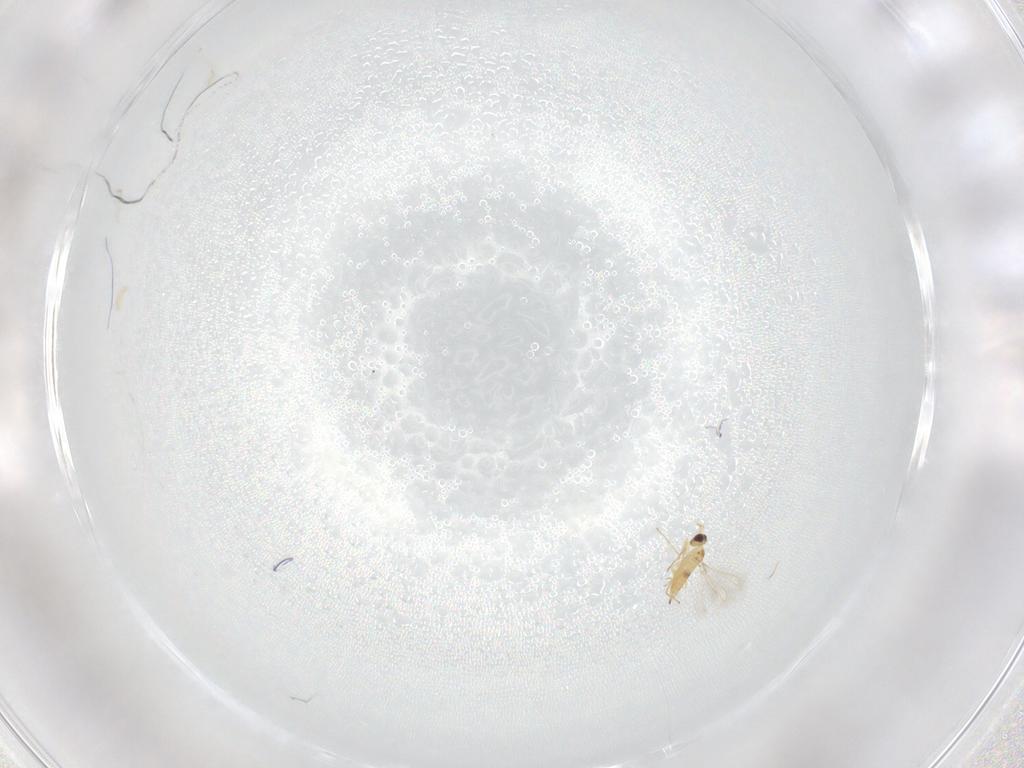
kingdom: Animalia
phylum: Arthropoda
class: Insecta
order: Hymenoptera
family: Mymaridae
